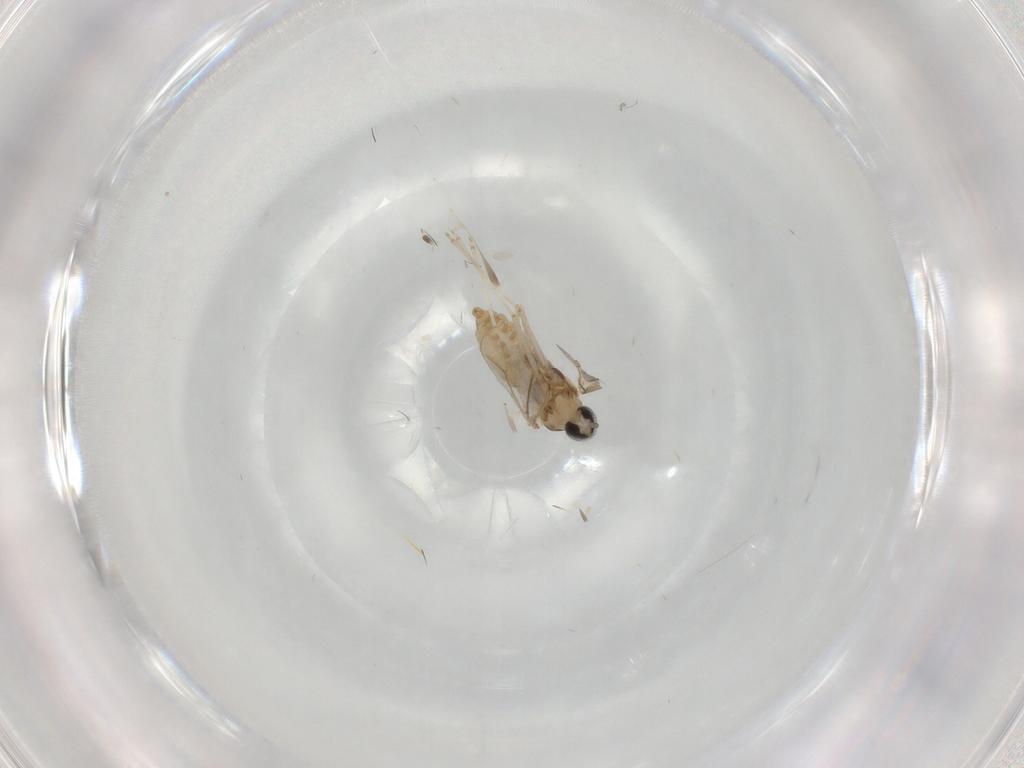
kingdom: Animalia
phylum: Arthropoda
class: Insecta
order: Diptera
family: Cecidomyiidae
